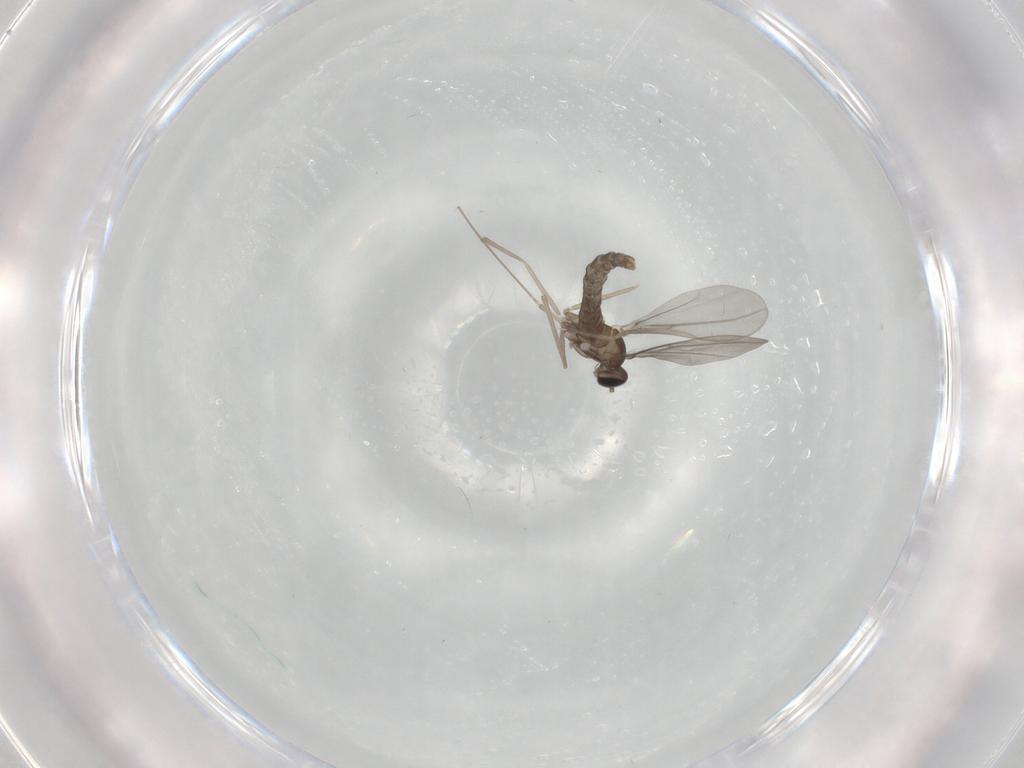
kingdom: Animalia
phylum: Arthropoda
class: Insecta
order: Diptera
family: Cecidomyiidae
